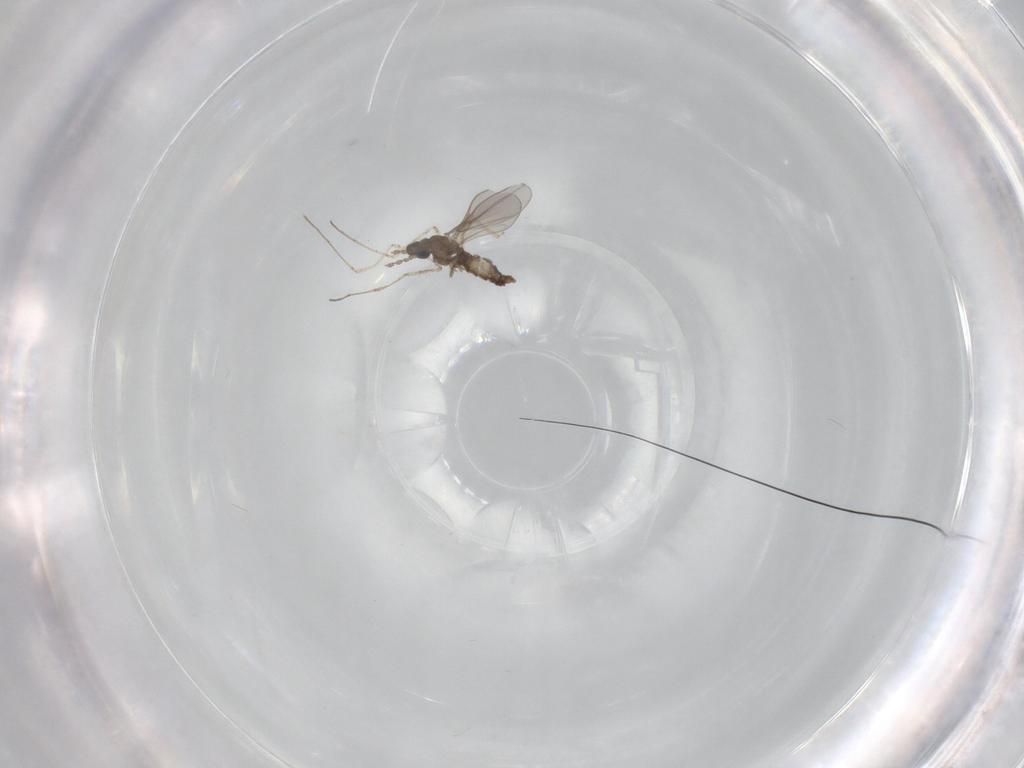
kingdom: Animalia
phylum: Arthropoda
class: Insecta
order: Diptera
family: Cecidomyiidae
